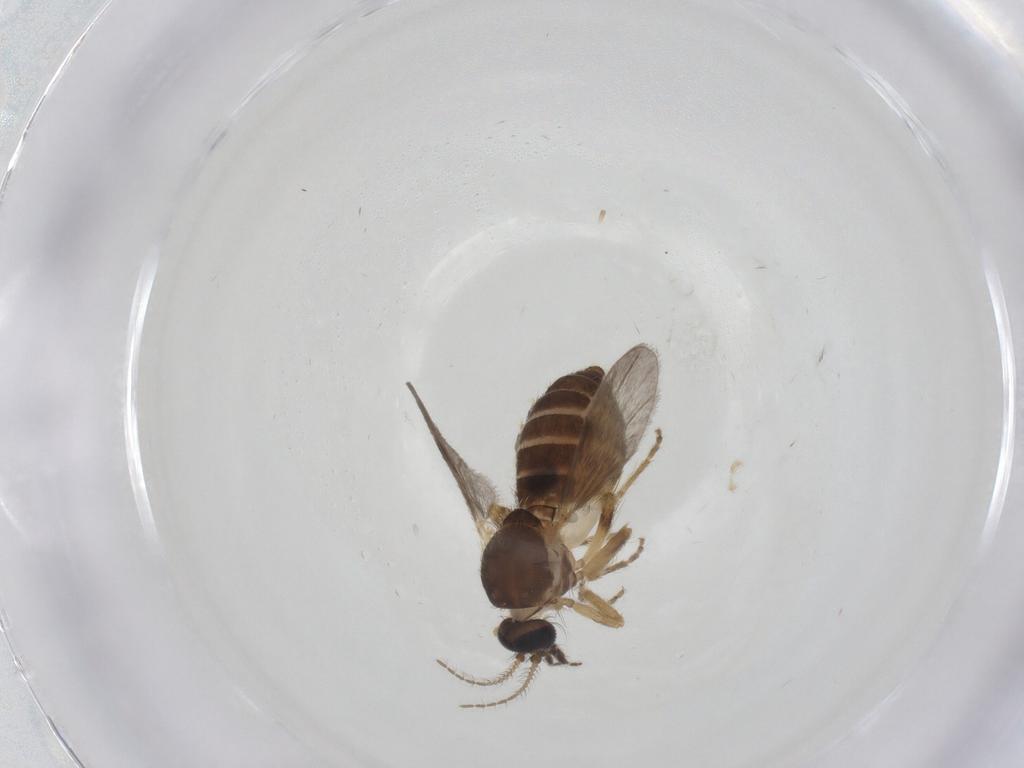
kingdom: Animalia
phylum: Arthropoda
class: Insecta
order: Diptera
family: Ceratopogonidae
